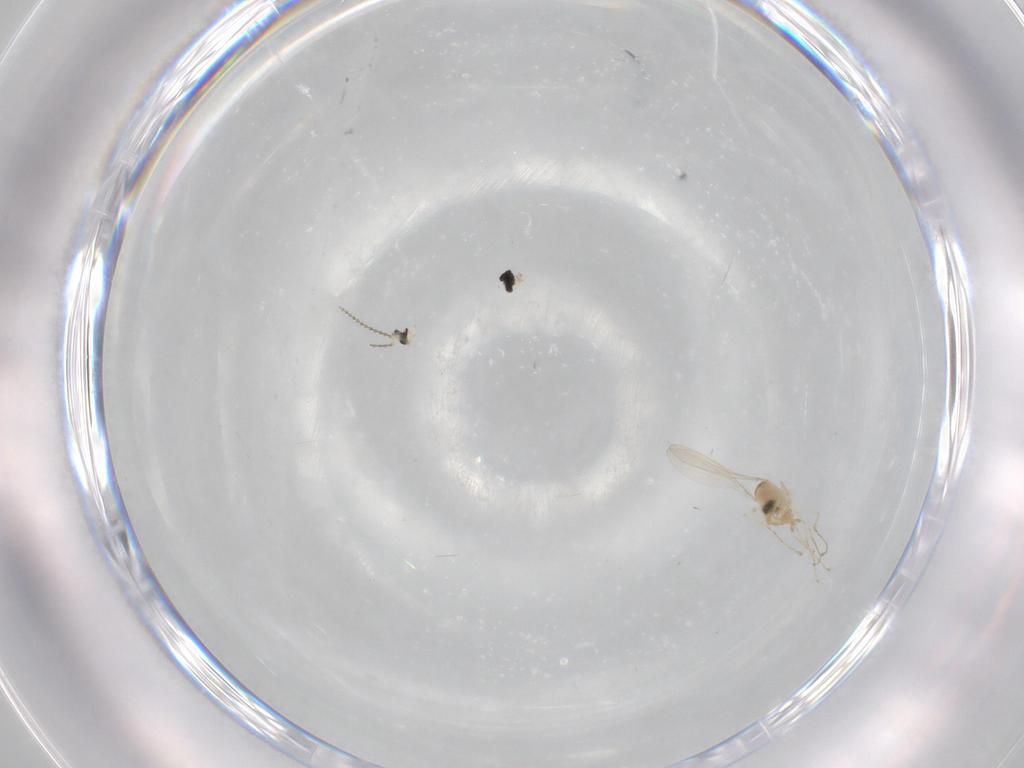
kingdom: Animalia
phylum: Arthropoda
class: Insecta
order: Diptera
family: Cecidomyiidae
